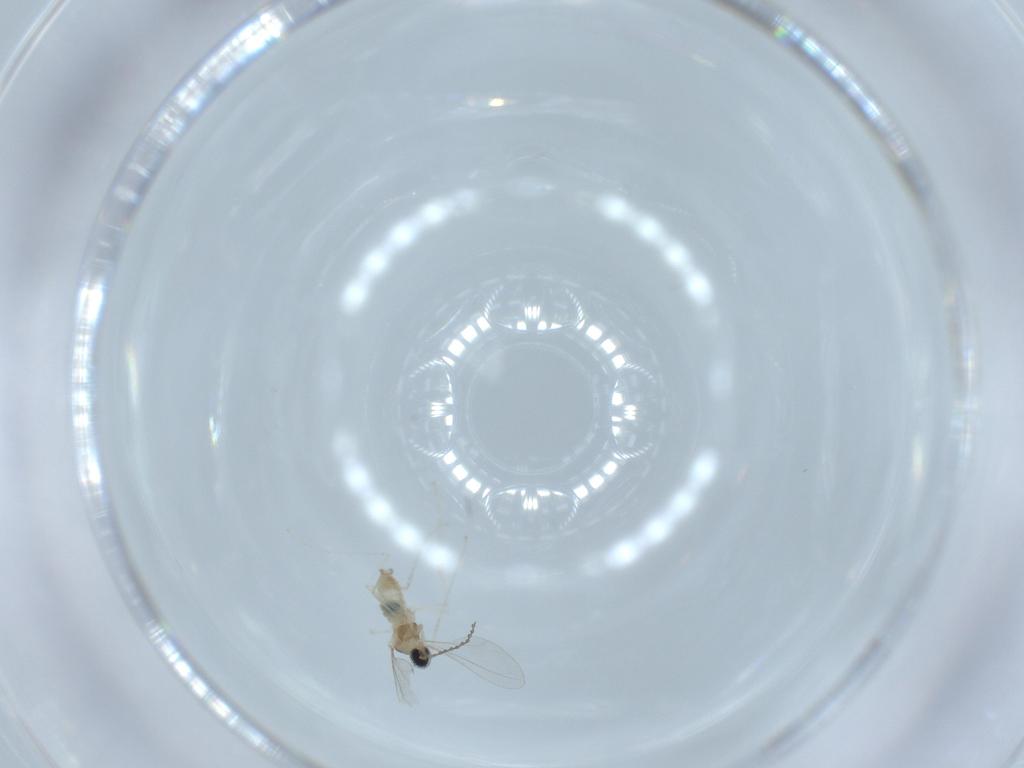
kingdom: Animalia
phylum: Arthropoda
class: Insecta
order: Diptera
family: Cecidomyiidae
